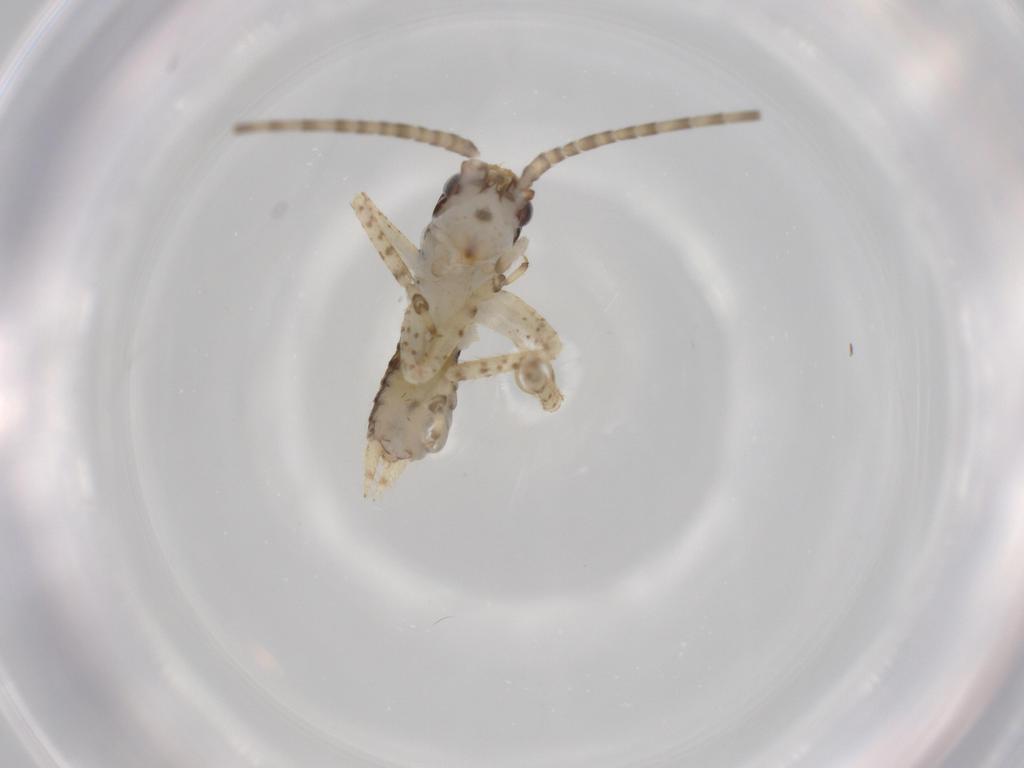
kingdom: Animalia
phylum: Arthropoda
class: Insecta
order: Orthoptera
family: Gryllidae
